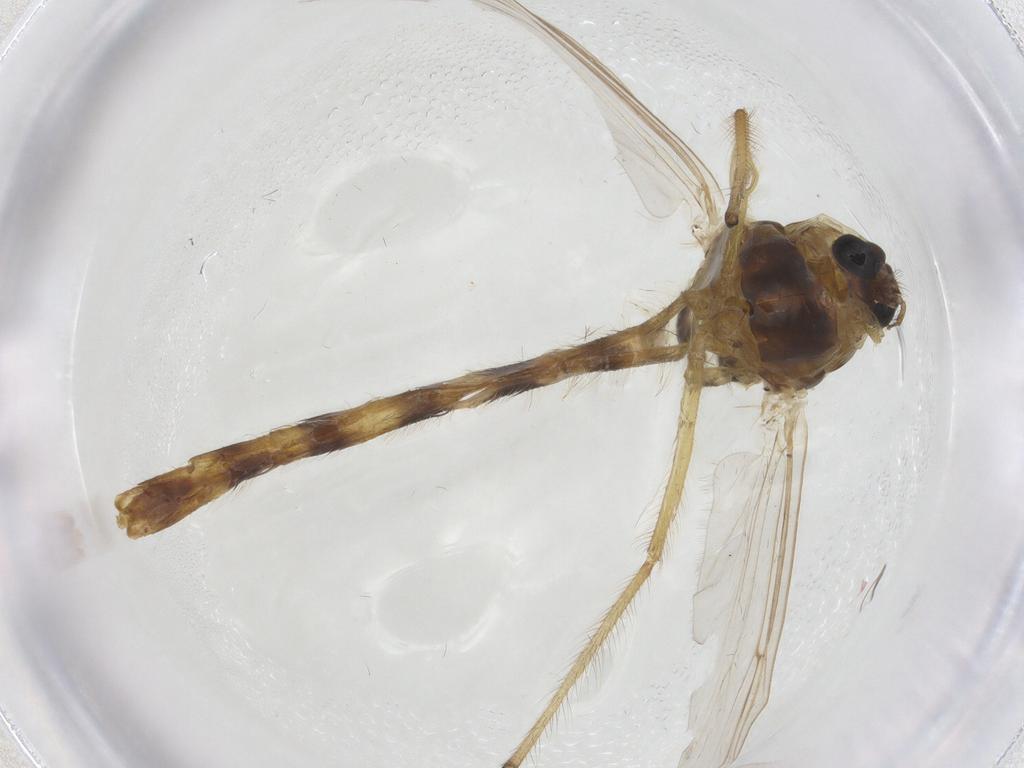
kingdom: Animalia
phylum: Arthropoda
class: Insecta
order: Diptera
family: Chironomidae
